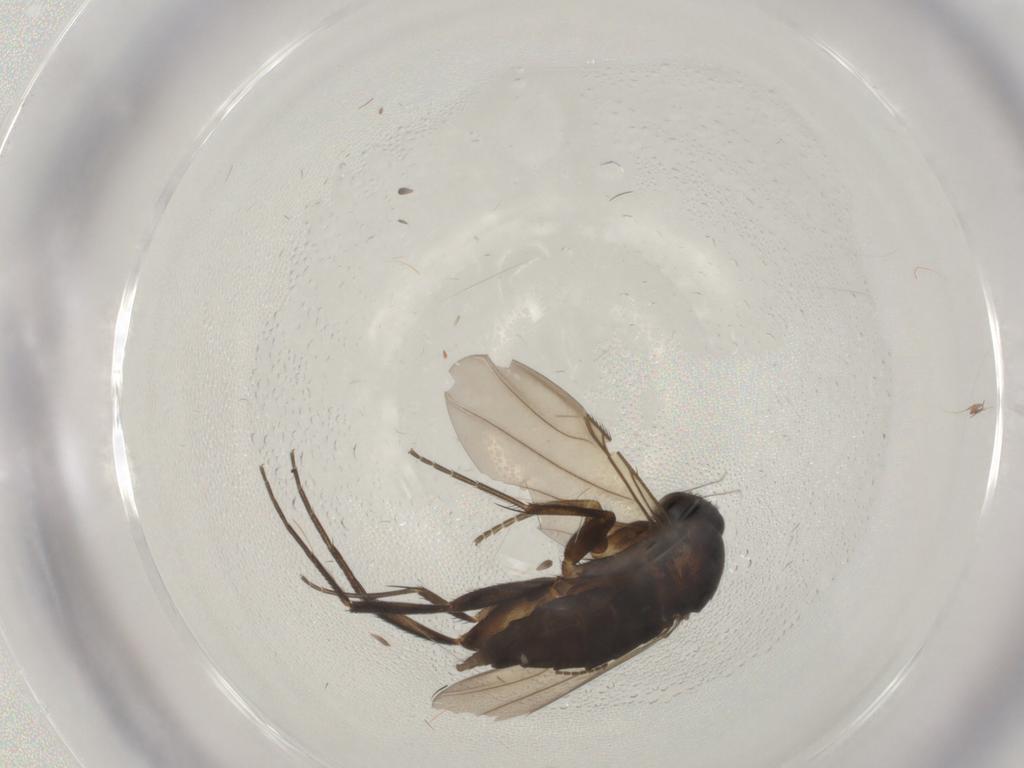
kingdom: Animalia
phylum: Arthropoda
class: Insecta
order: Diptera
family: Phoridae
